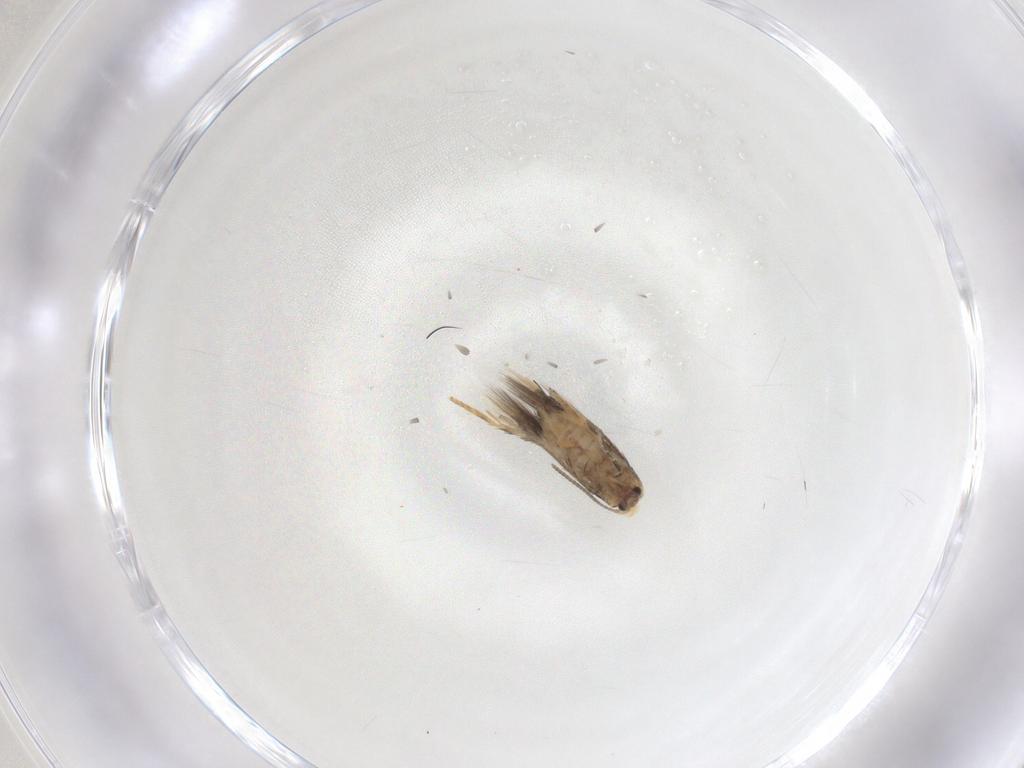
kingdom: Animalia
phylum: Arthropoda
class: Insecta
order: Lepidoptera
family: Nepticulidae
